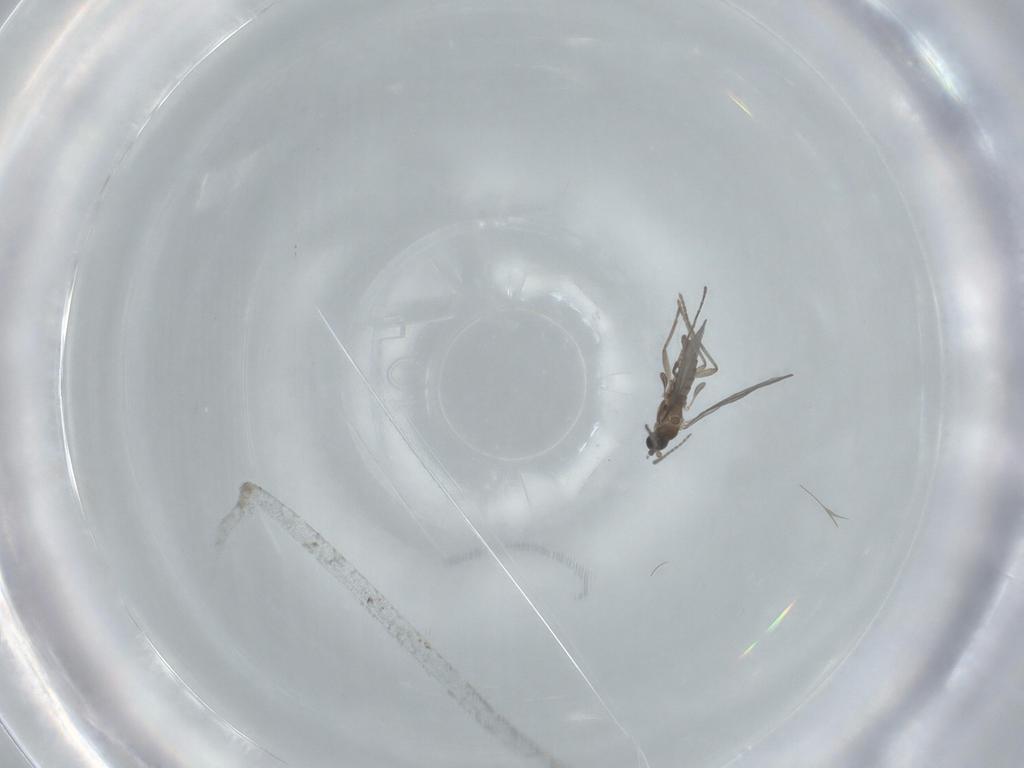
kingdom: Animalia
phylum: Arthropoda
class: Insecta
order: Diptera
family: Sciaridae
